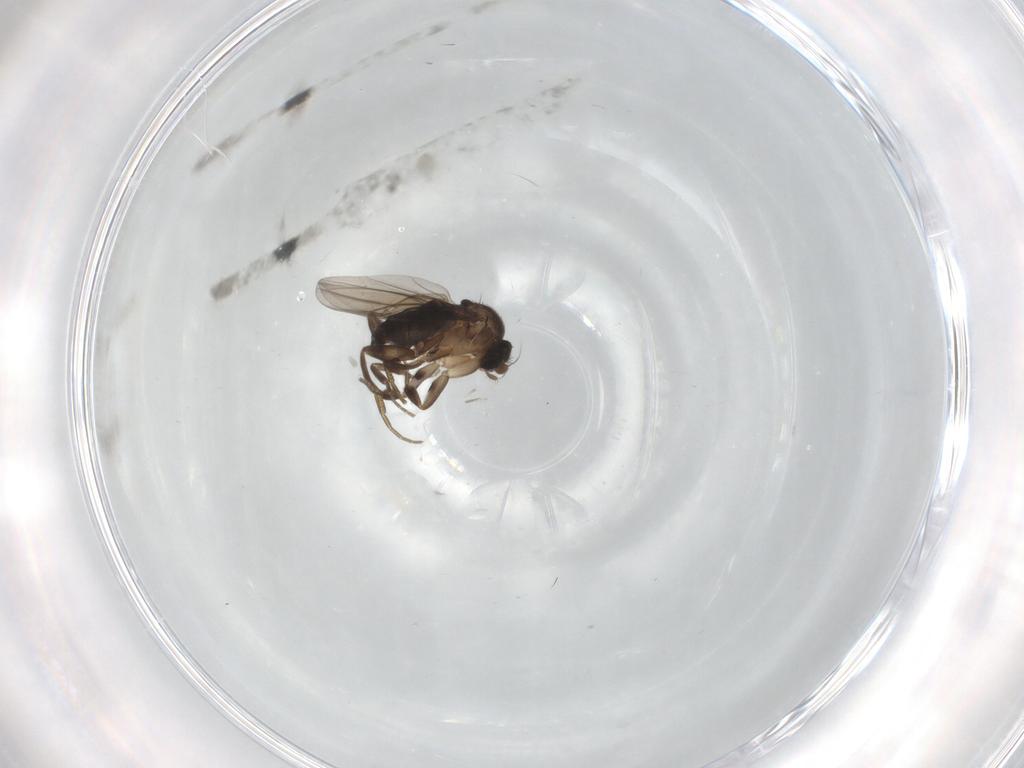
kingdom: Animalia
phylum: Arthropoda
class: Insecta
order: Diptera
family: Phoridae
